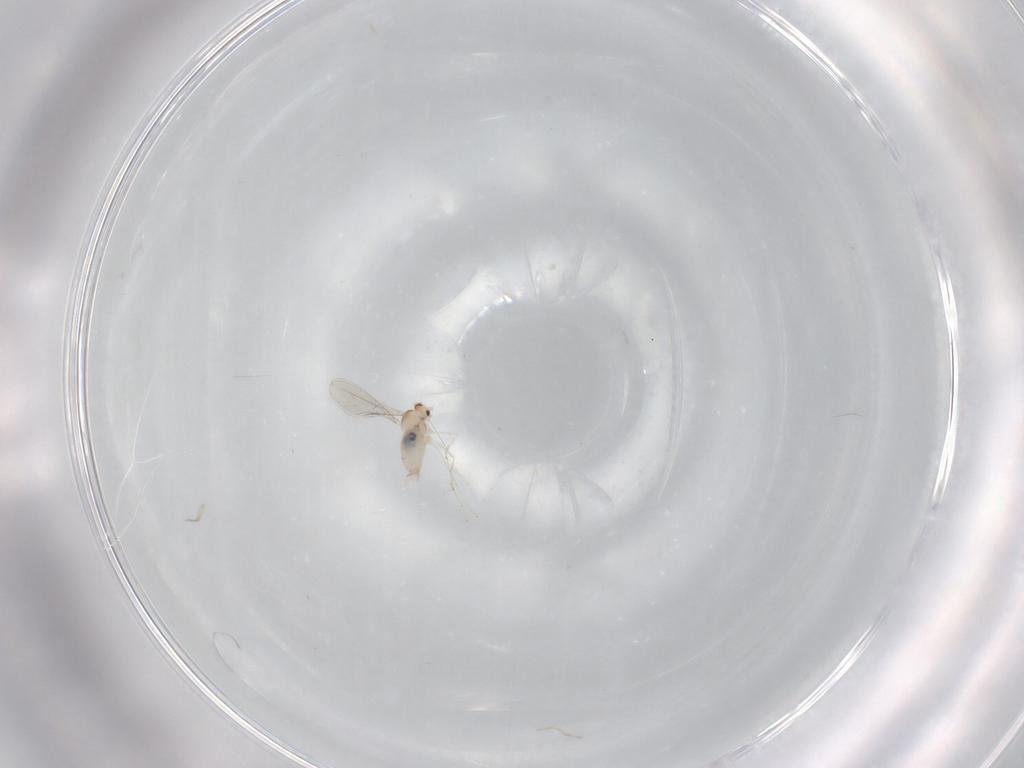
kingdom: Animalia
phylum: Arthropoda
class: Insecta
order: Diptera
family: Cecidomyiidae
